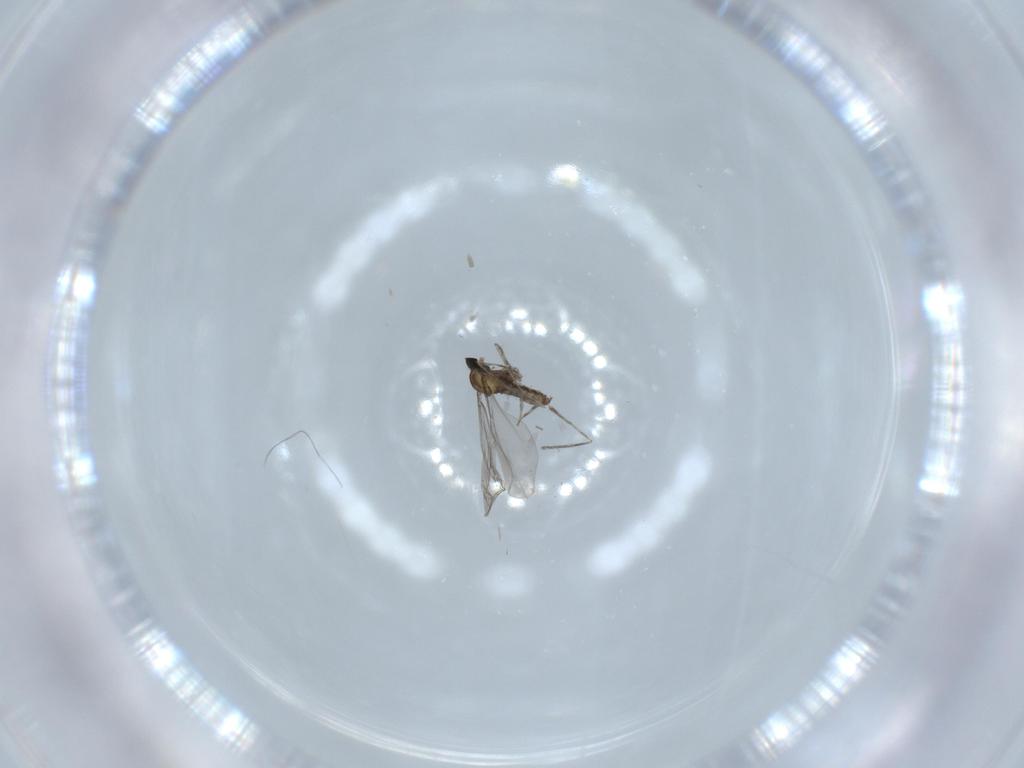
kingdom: Animalia
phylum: Arthropoda
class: Insecta
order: Diptera
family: Cecidomyiidae
